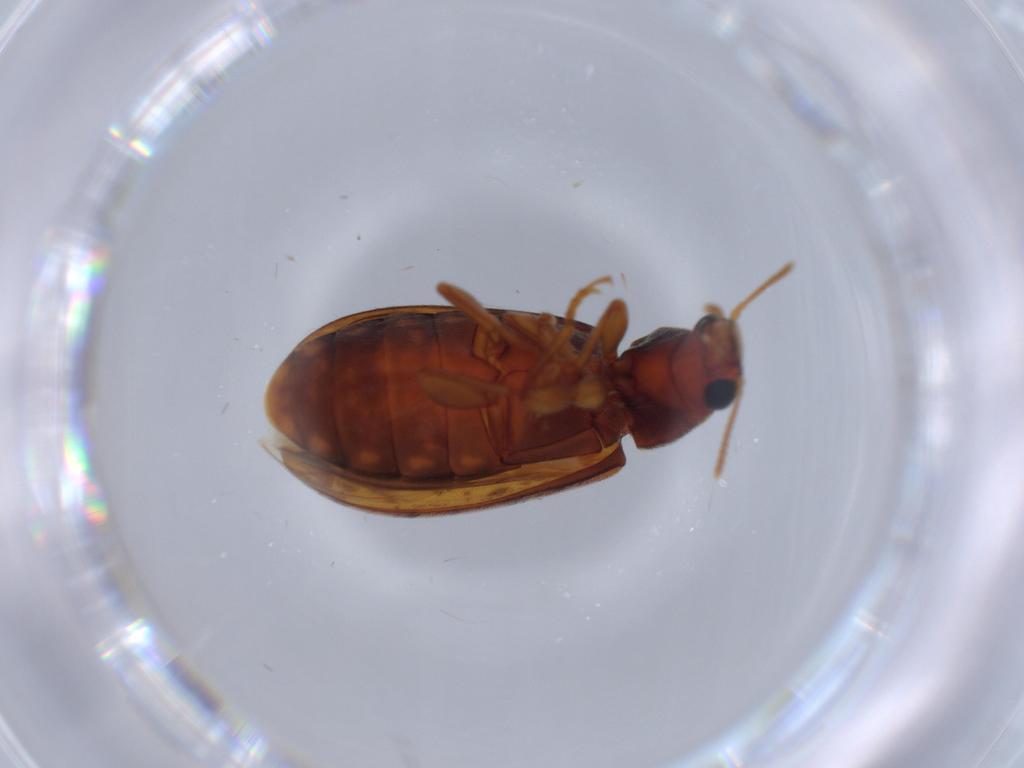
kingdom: Animalia
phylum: Arthropoda
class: Insecta
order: Coleoptera
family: Mycteridae
